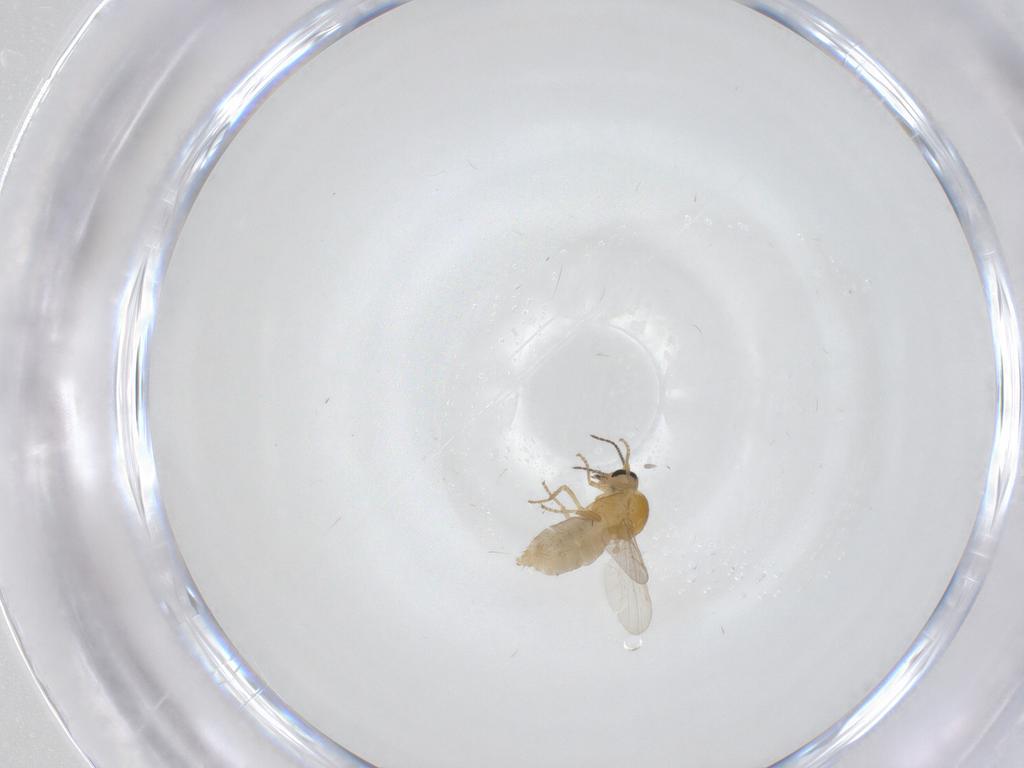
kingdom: Animalia
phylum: Arthropoda
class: Insecta
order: Diptera
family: Ceratopogonidae
